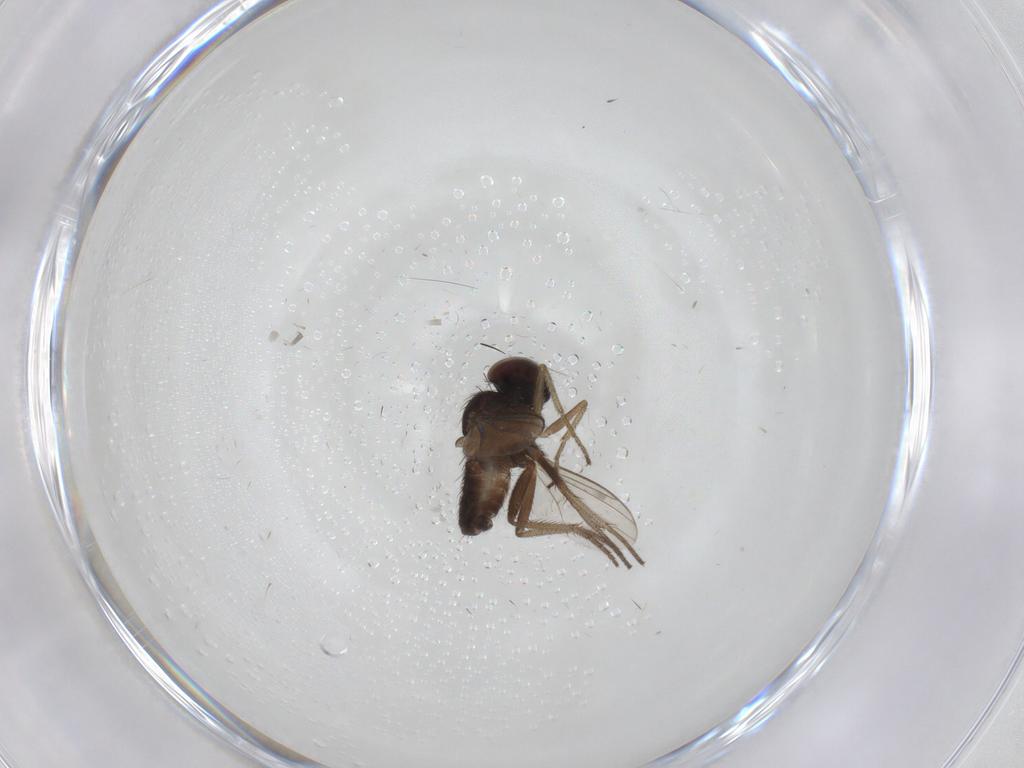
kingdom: Animalia
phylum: Arthropoda
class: Insecta
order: Diptera
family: Dolichopodidae
